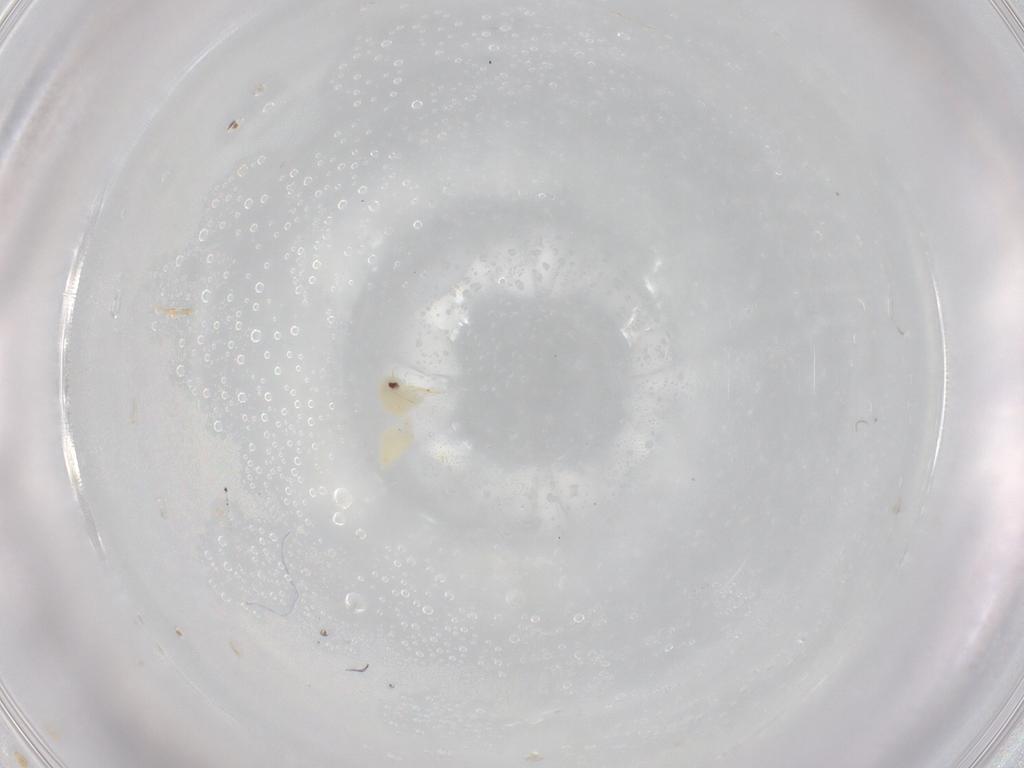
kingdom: Animalia
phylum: Arthropoda
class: Insecta
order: Hemiptera
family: Aleyrodidae
